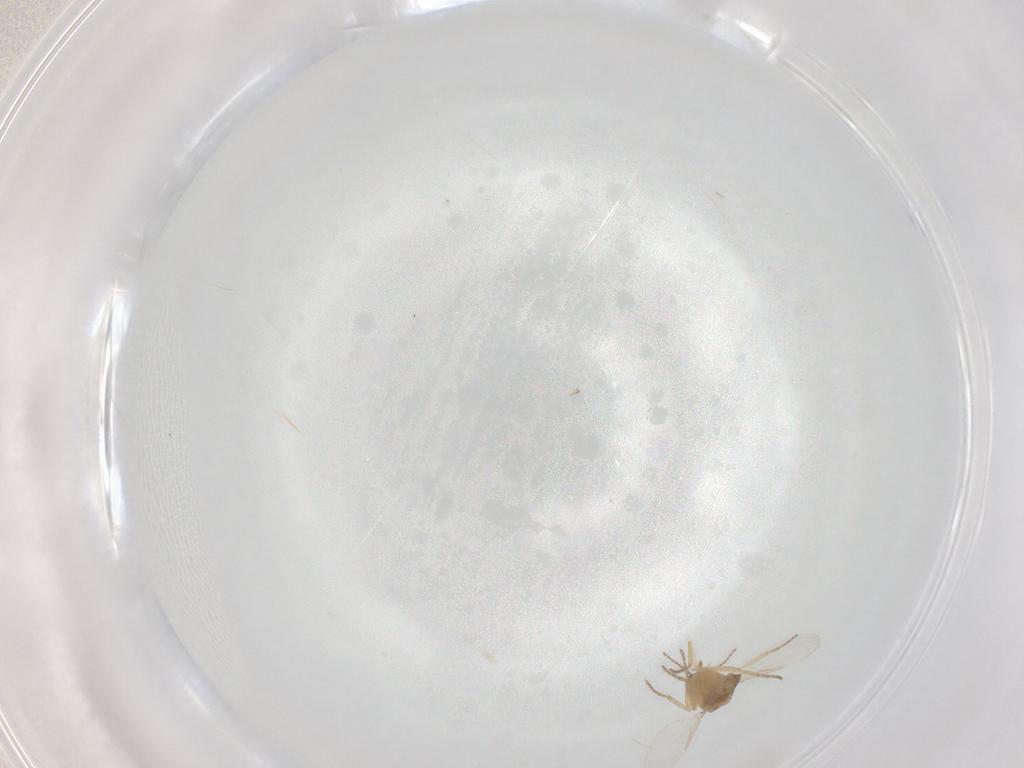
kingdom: Animalia
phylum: Arthropoda
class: Insecta
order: Diptera
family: Ceratopogonidae
